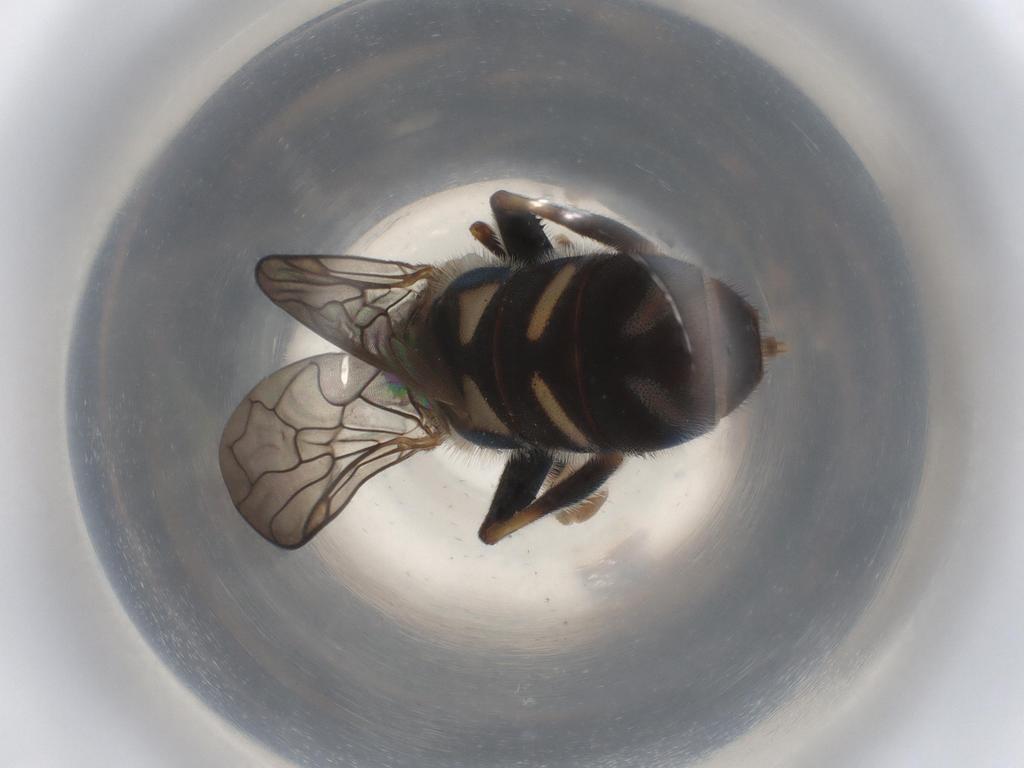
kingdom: Animalia
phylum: Arthropoda
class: Insecta
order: Diptera
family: Syrphidae
